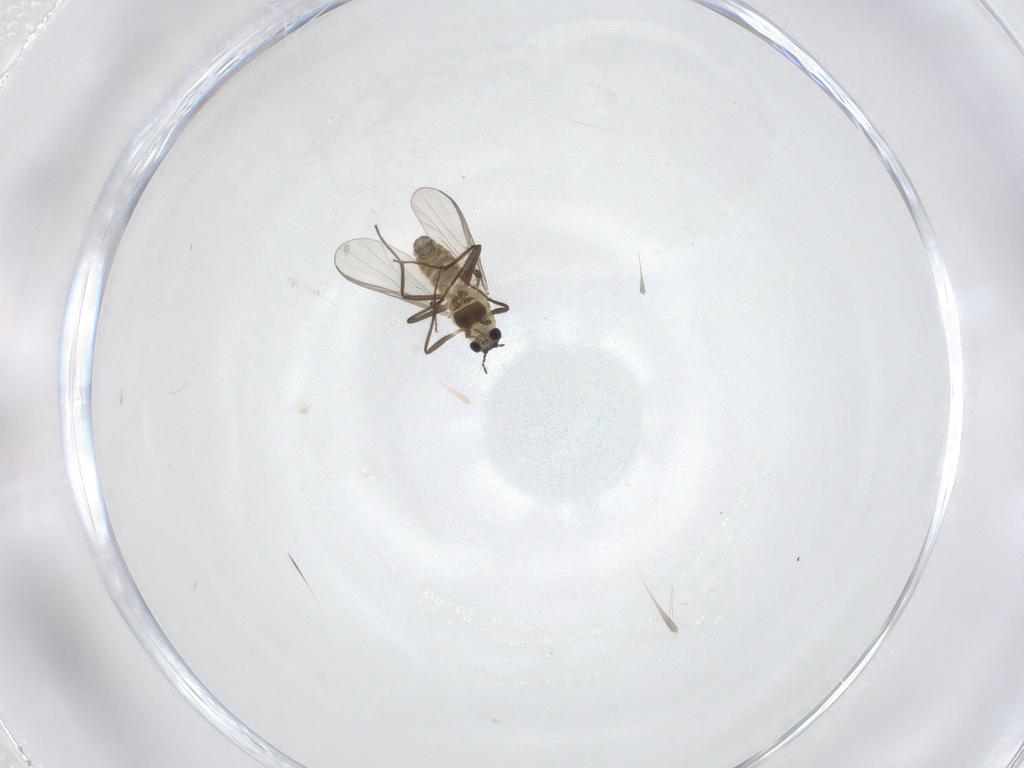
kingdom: Animalia
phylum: Arthropoda
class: Insecta
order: Diptera
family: Chironomidae
